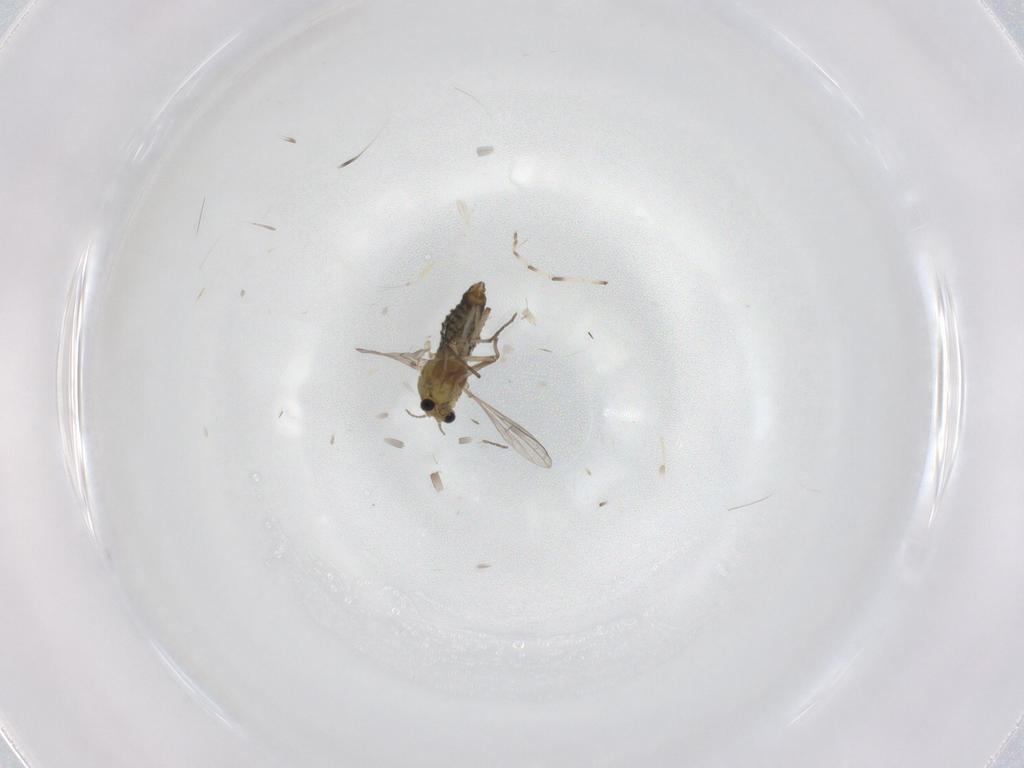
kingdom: Animalia
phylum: Arthropoda
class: Insecta
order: Diptera
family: Chironomidae
